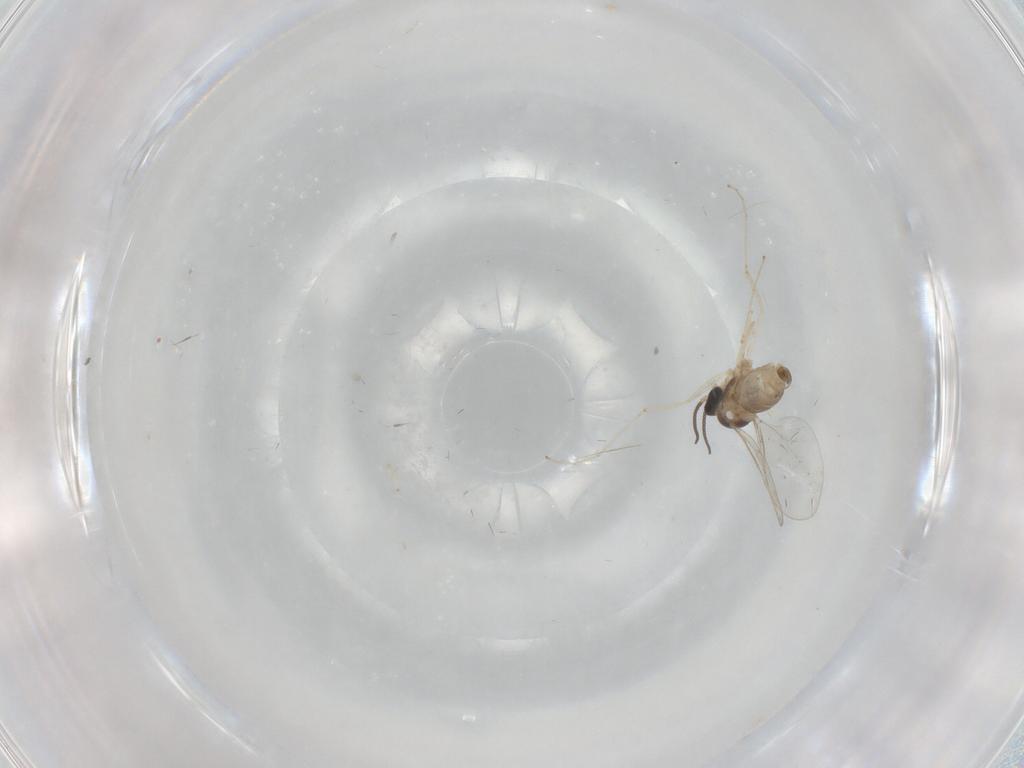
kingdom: Animalia
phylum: Arthropoda
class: Insecta
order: Diptera
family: Cecidomyiidae
